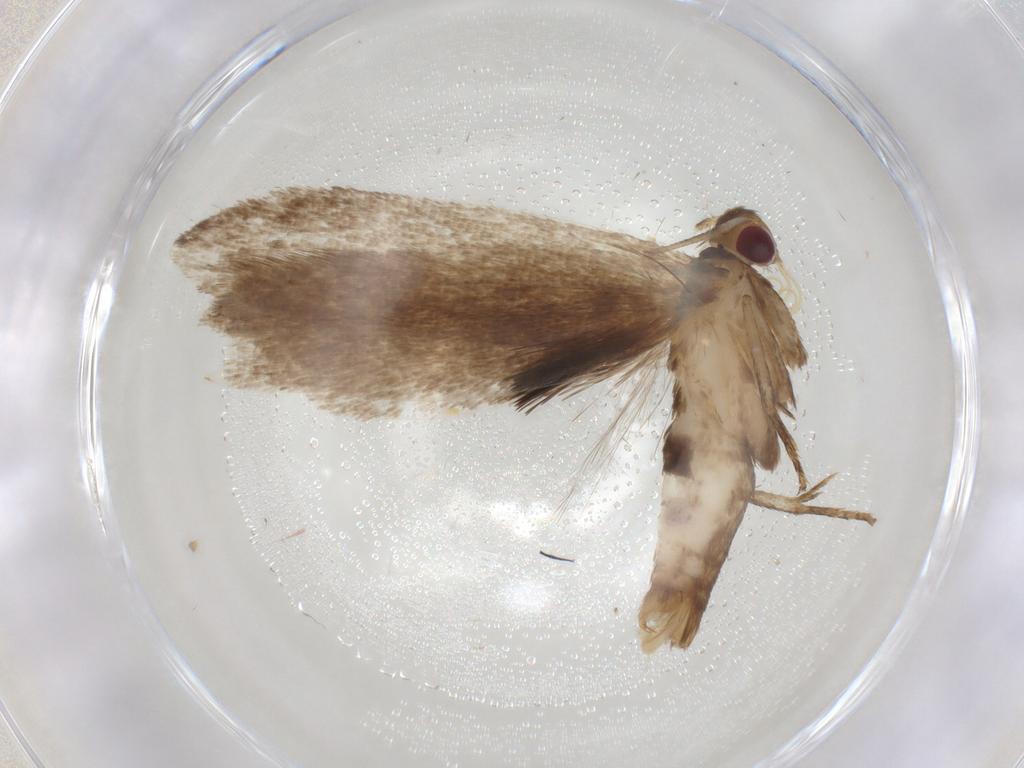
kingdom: Animalia
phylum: Arthropoda
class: Insecta
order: Lepidoptera
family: Gelechiidae
